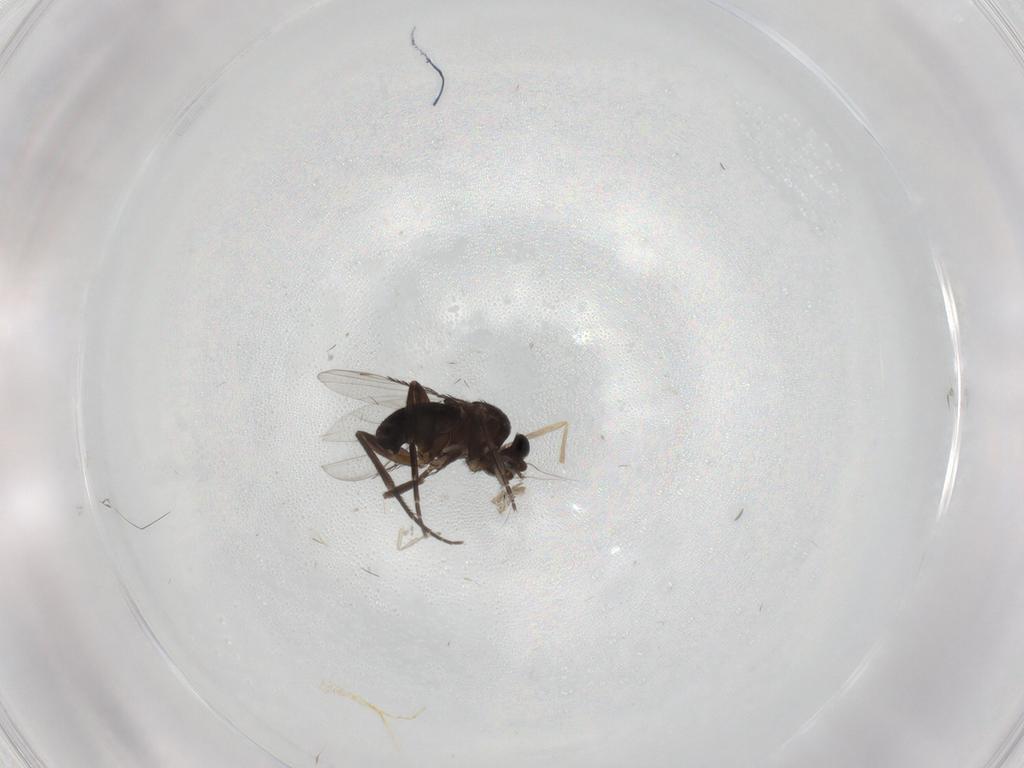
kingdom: Animalia
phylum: Arthropoda
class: Insecta
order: Diptera
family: Phoridae
